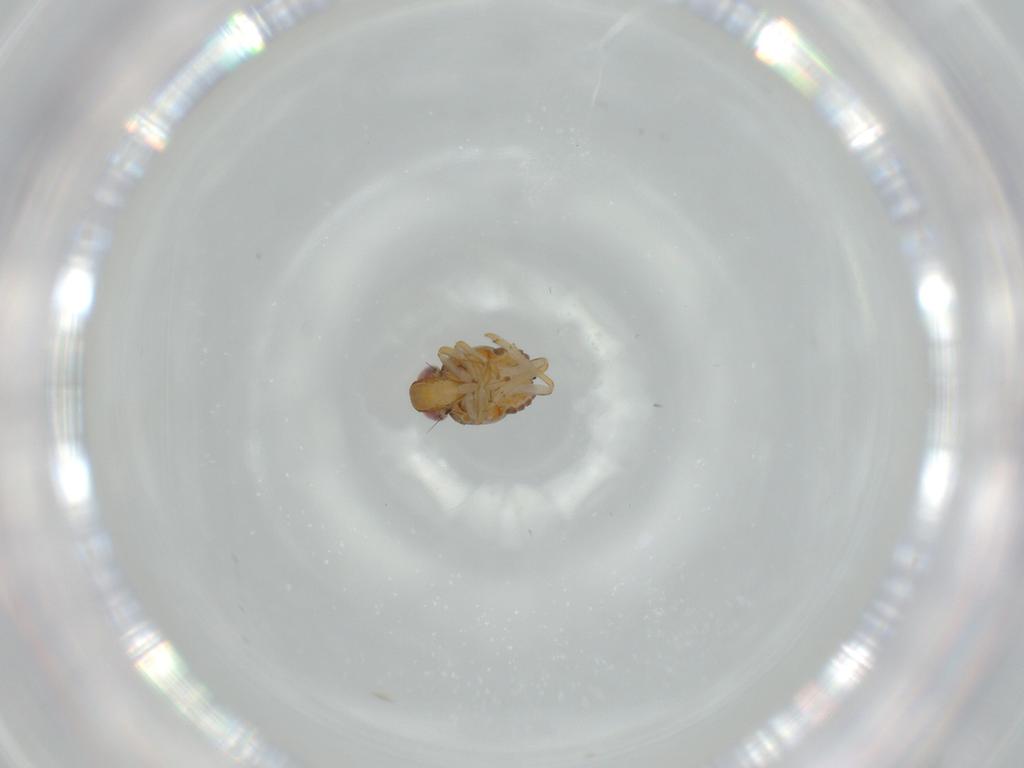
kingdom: Animalia
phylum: Arthropoda
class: Insecta
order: Hemiptera
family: Issidae
